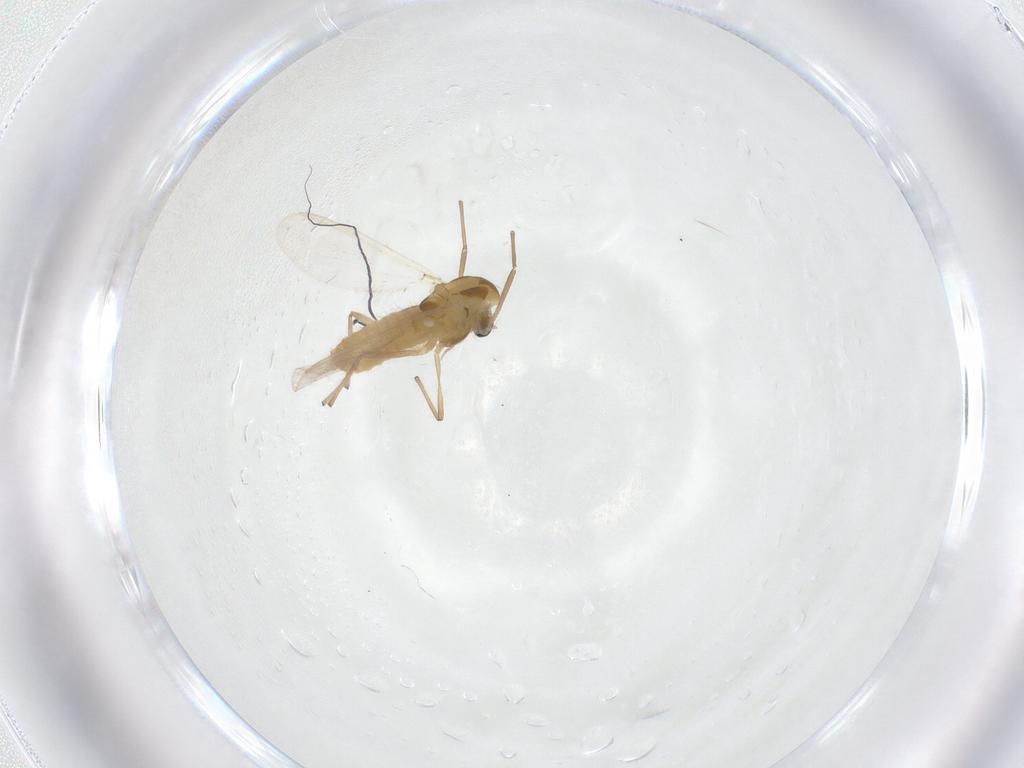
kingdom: Animalia
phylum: Arthropoda
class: Insecta
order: Diptera
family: Chironomidae
